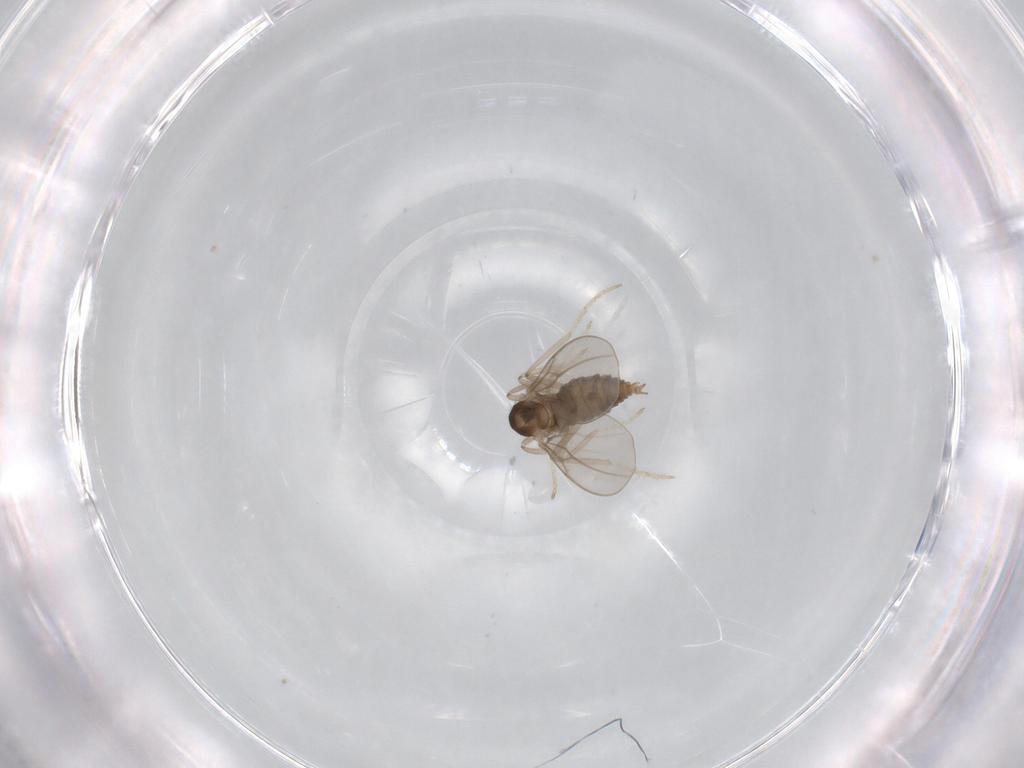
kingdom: Animalia
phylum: Arthropoda
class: Insecta
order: Diptera
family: Cecidomyiidae
